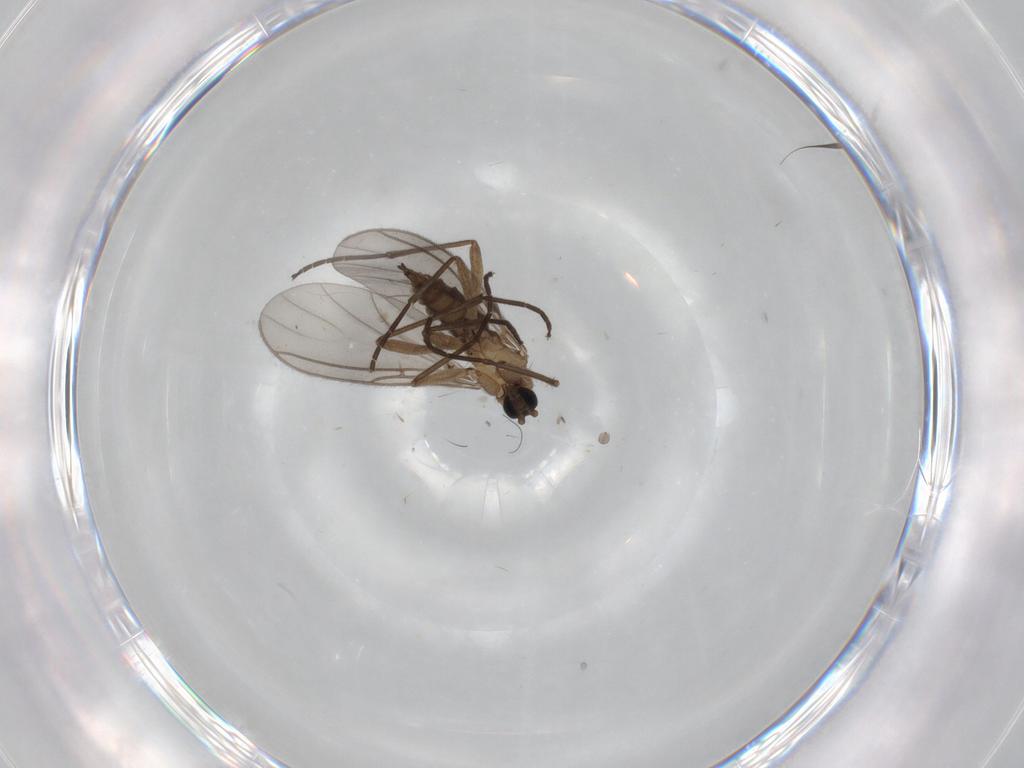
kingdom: Animalia
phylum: Arthropoda
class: Insecta
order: Diptera
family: Sciaridae
